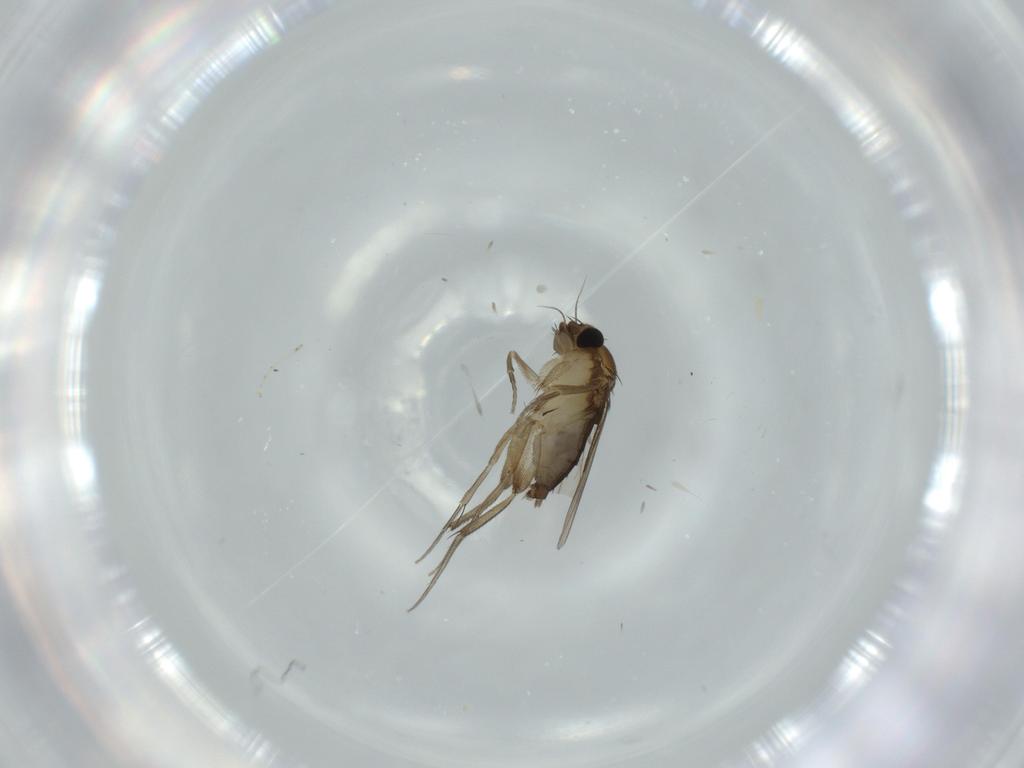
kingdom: Animalia
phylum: Arthropoda
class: Insecta
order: Diptera
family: Cecidomyiidae
